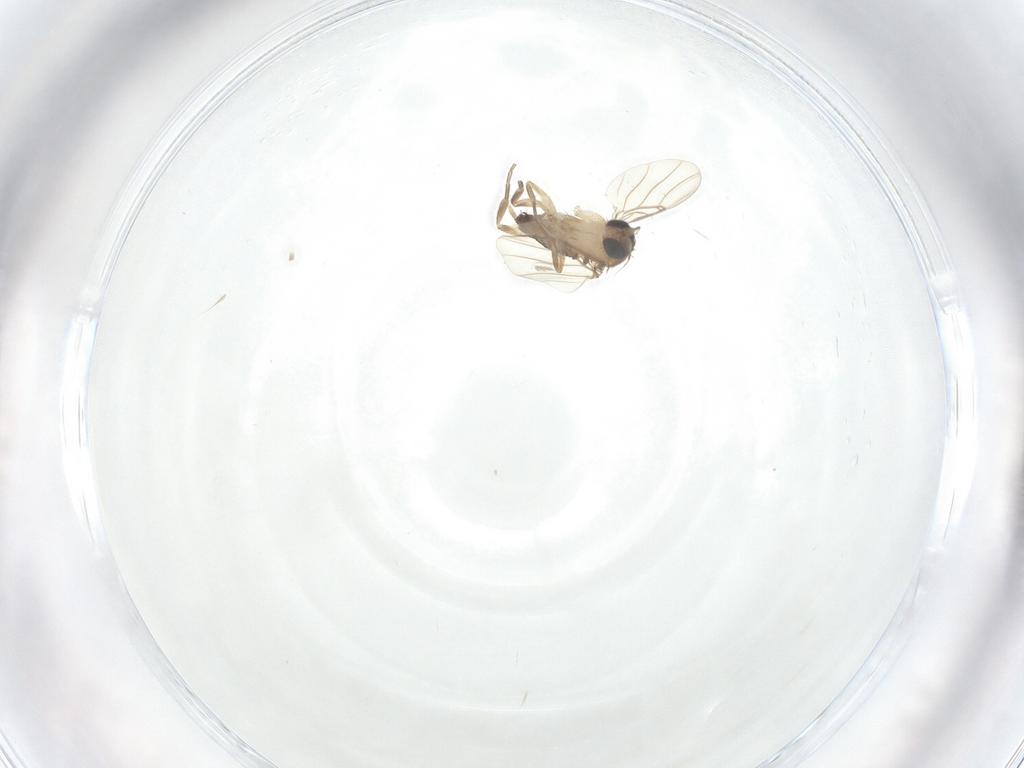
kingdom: Animalia
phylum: Arthropoda
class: Insecta
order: Diptera
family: Phoridae
